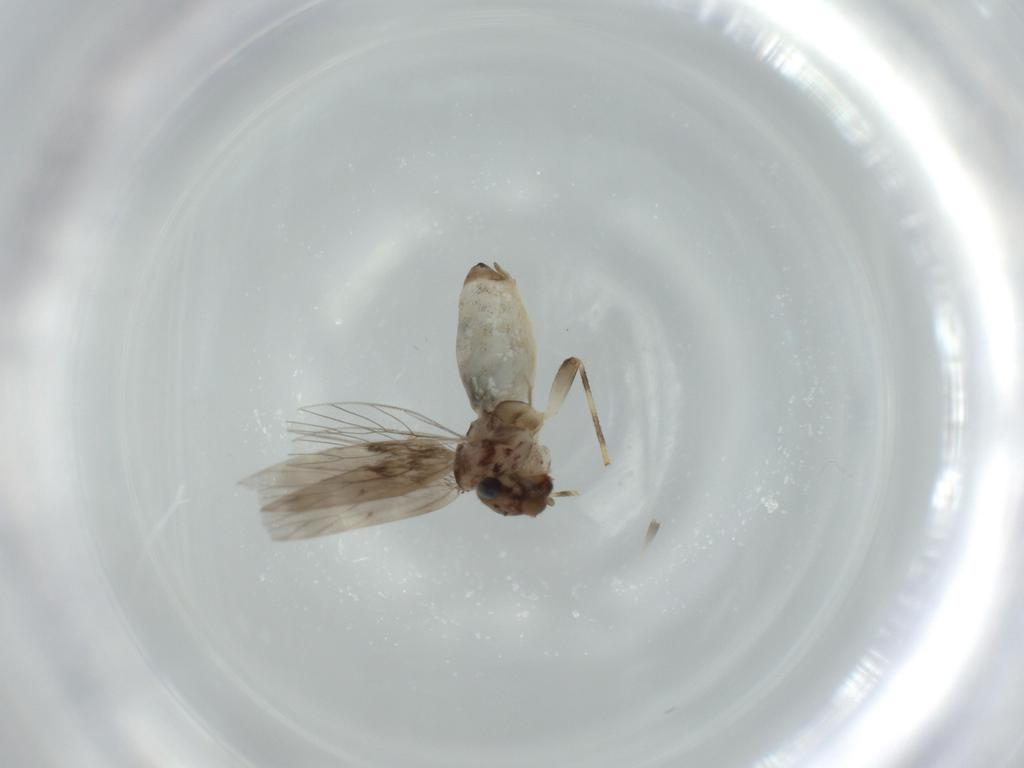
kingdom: Animalia
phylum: Arthropoda
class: Insecta
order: Psocodea
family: Lepidopsocidae
